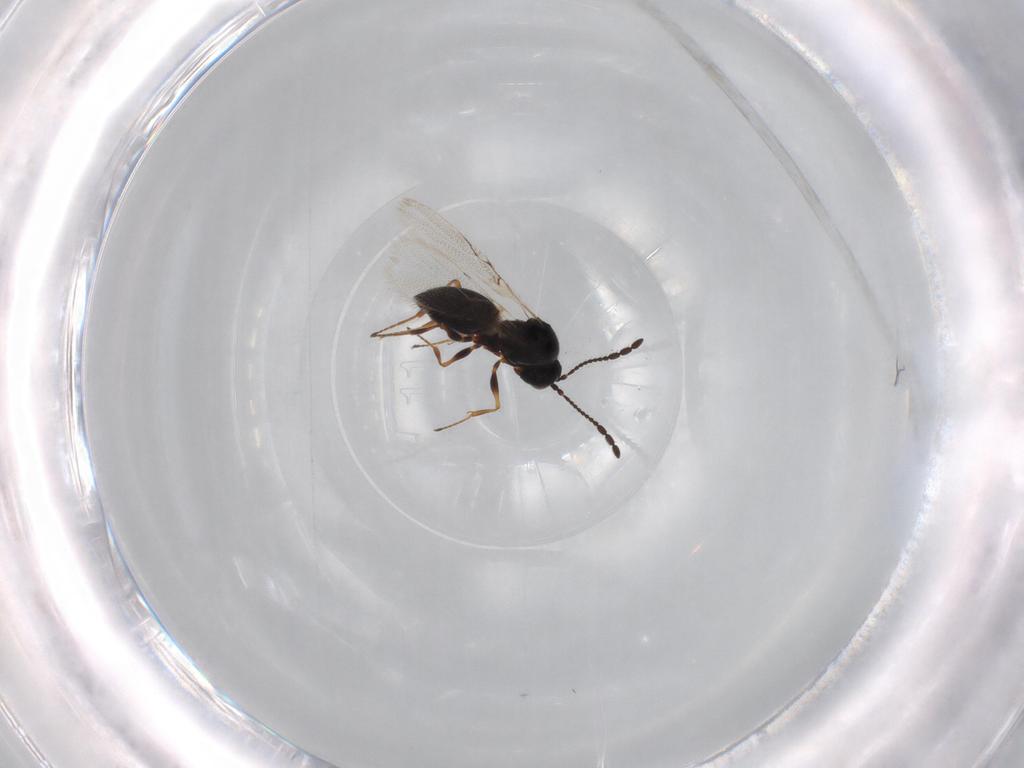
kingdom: Animalia
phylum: Arthropoda
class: Insecta
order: Hymenoptera
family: Figitidae
